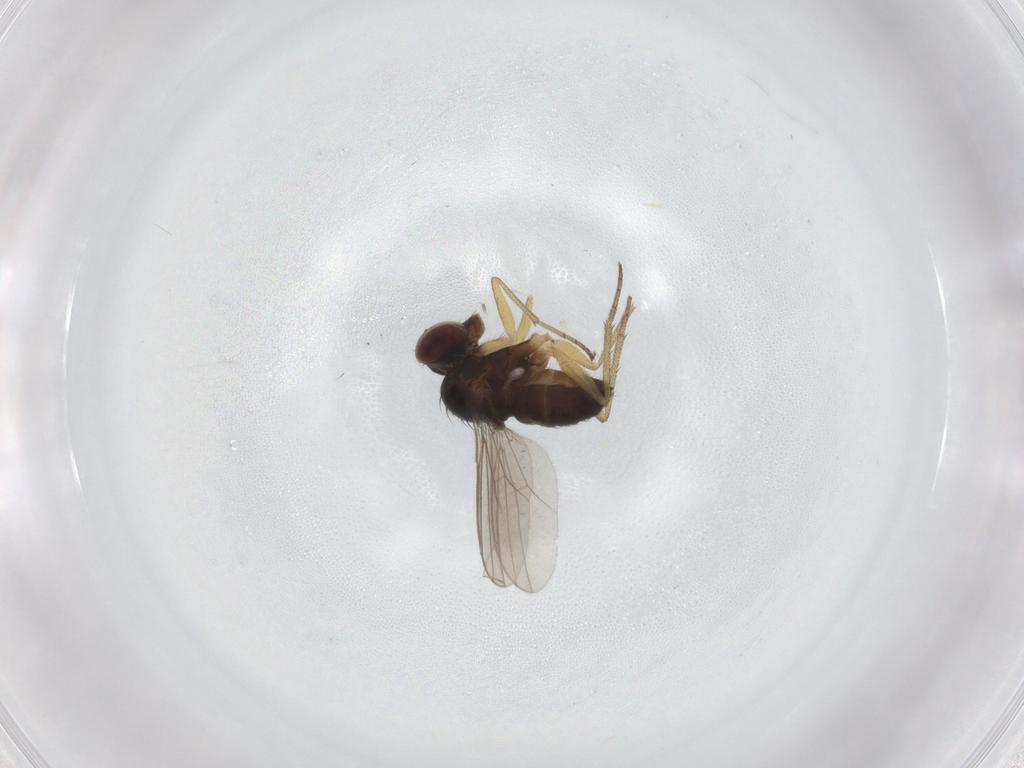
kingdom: Animalia
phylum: Arthropoda
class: Insecta
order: Diptera
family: Dolichopodidae
